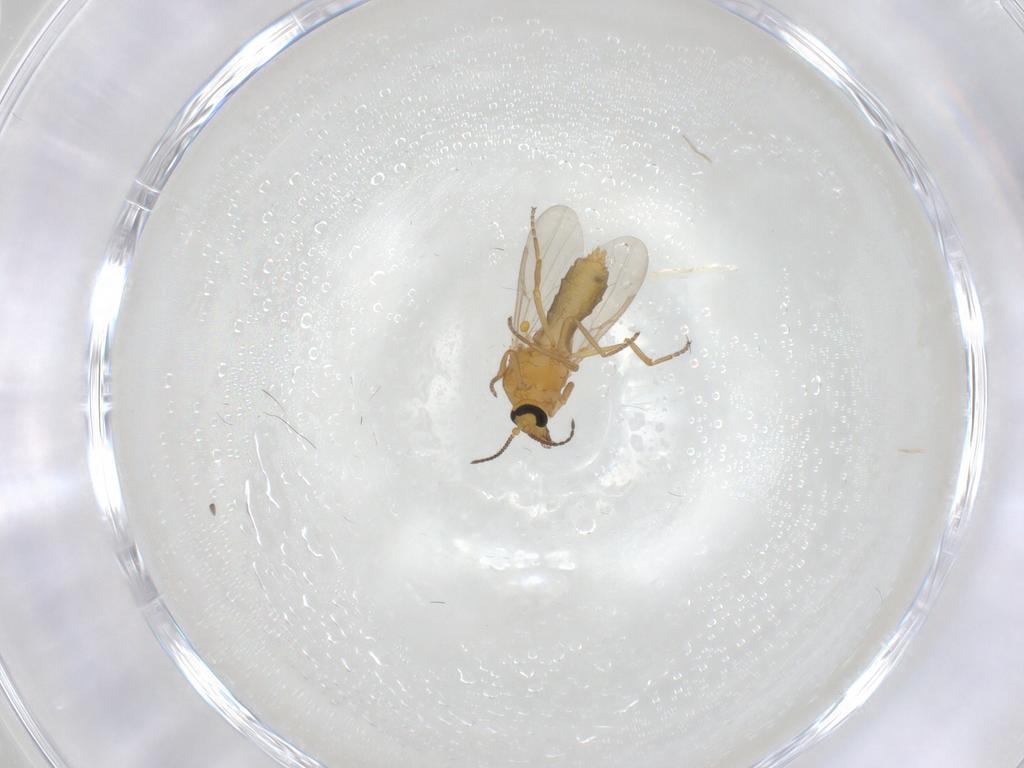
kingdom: Animalia
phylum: Arthropoda
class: Insecta
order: Diptera
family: Ceratopogonidae
